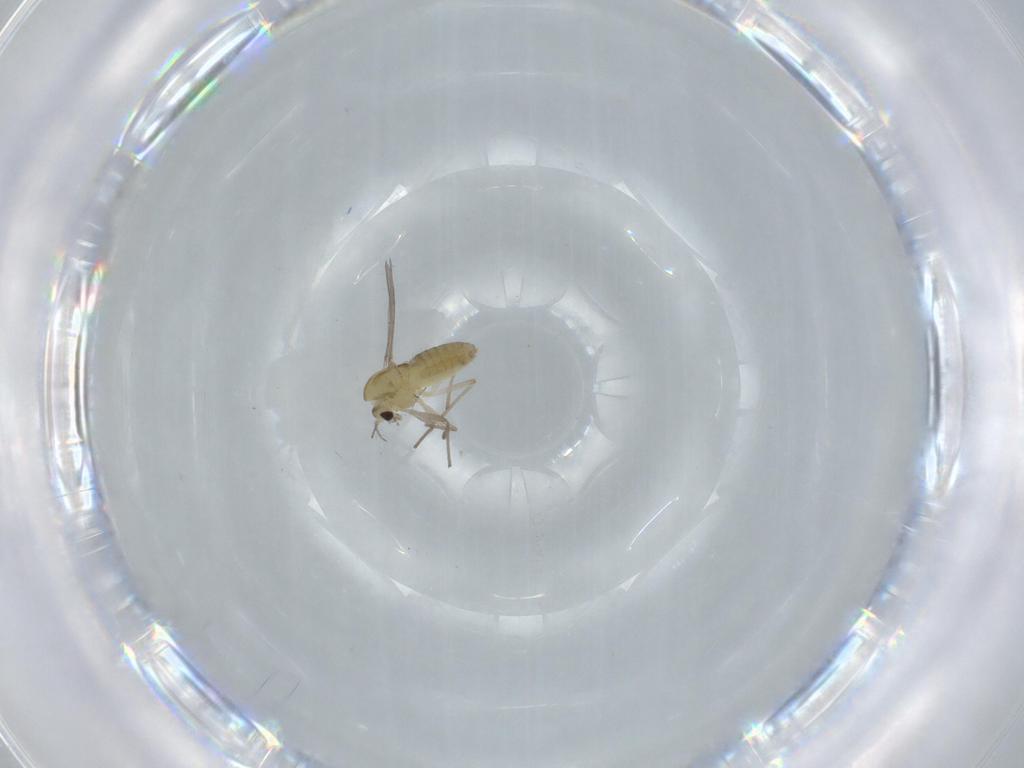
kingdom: Animalia
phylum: Arthropoda
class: Insecta
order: Diptera
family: Chironomidae
